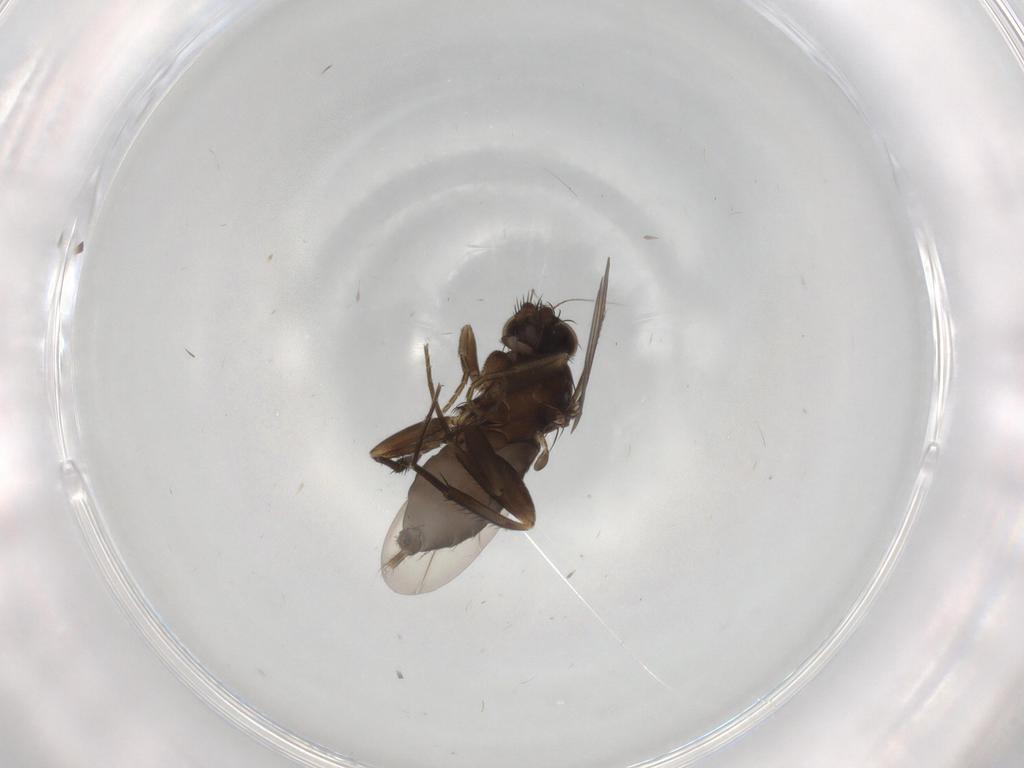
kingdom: Animalia
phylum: Arthropoda
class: Insecta
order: Diptera
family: Phoridae
